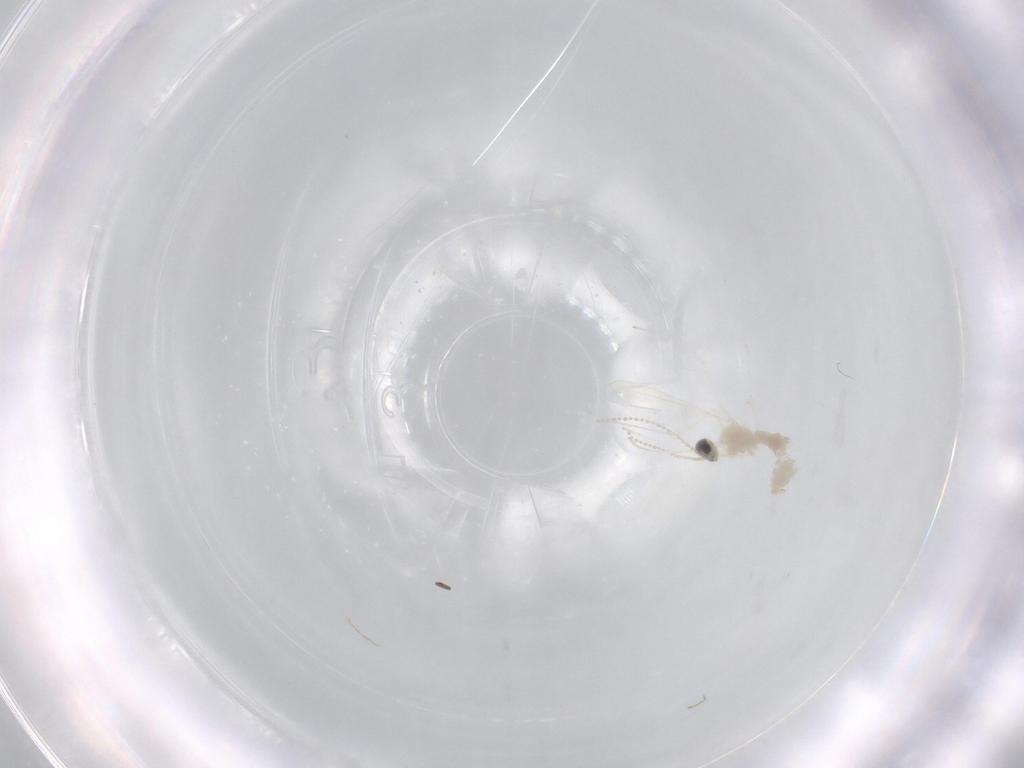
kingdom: Animalia
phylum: Arthropoda
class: Insecta
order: Diptera
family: Cecidomyiidae
